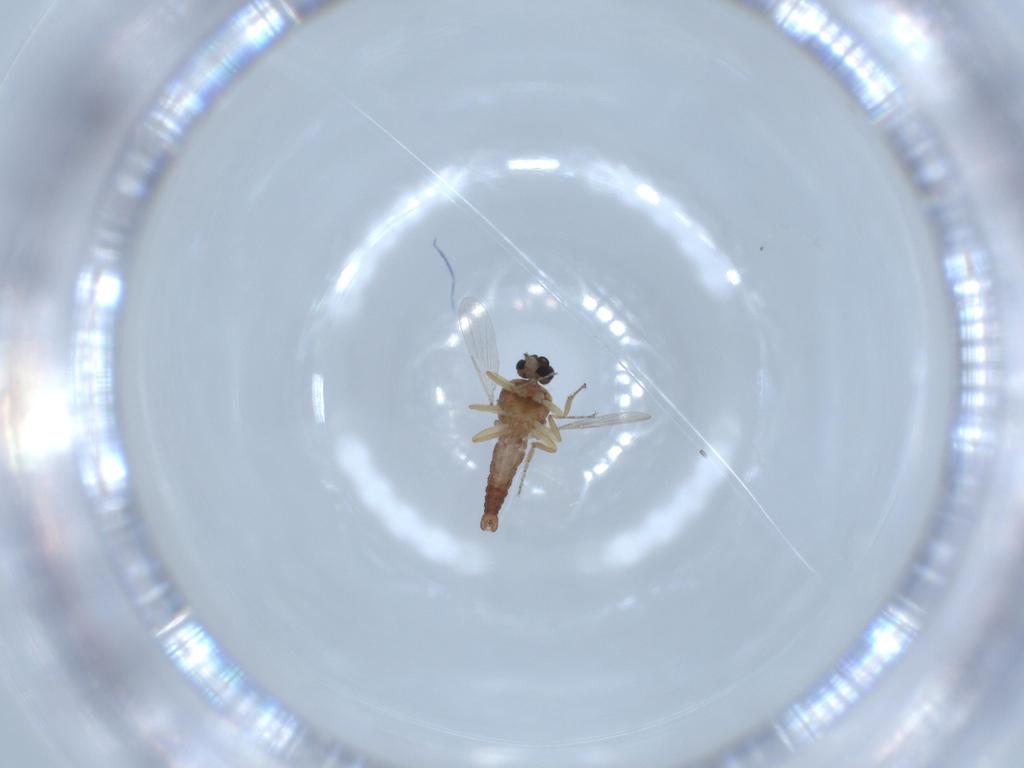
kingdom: Animalia
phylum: Arthropoda
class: Insecta
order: Diptera
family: Ceratopogonidae
